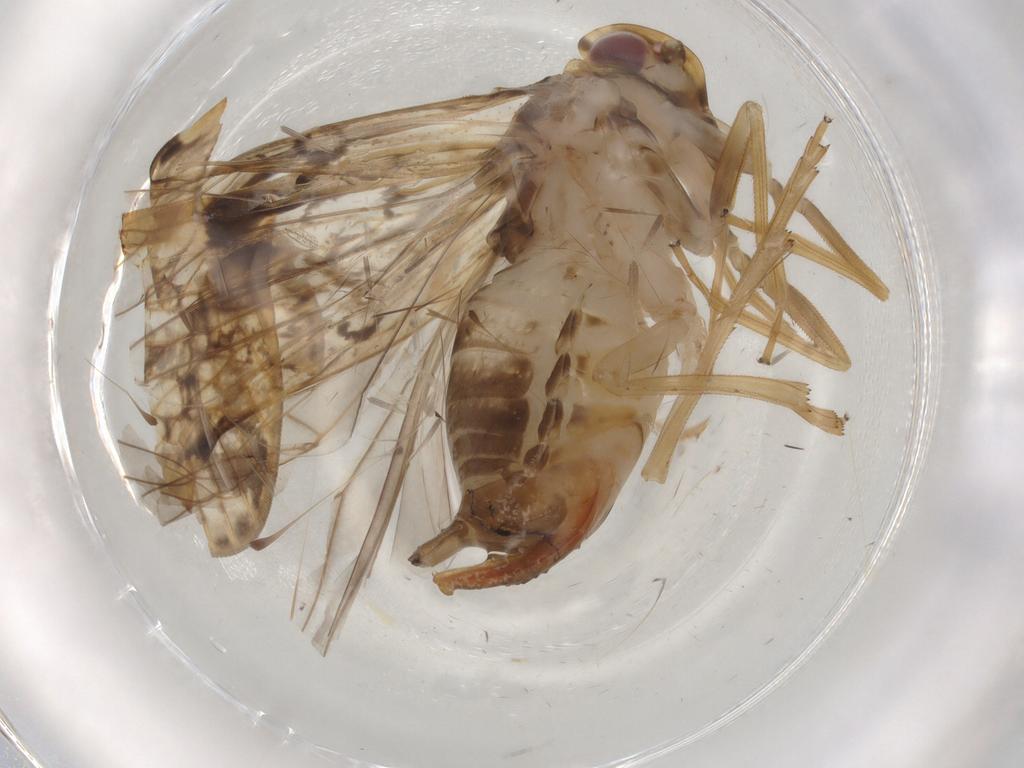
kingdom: Animalia
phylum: Arthropoda
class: Insecta
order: Hemiptera
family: Cixiidae
